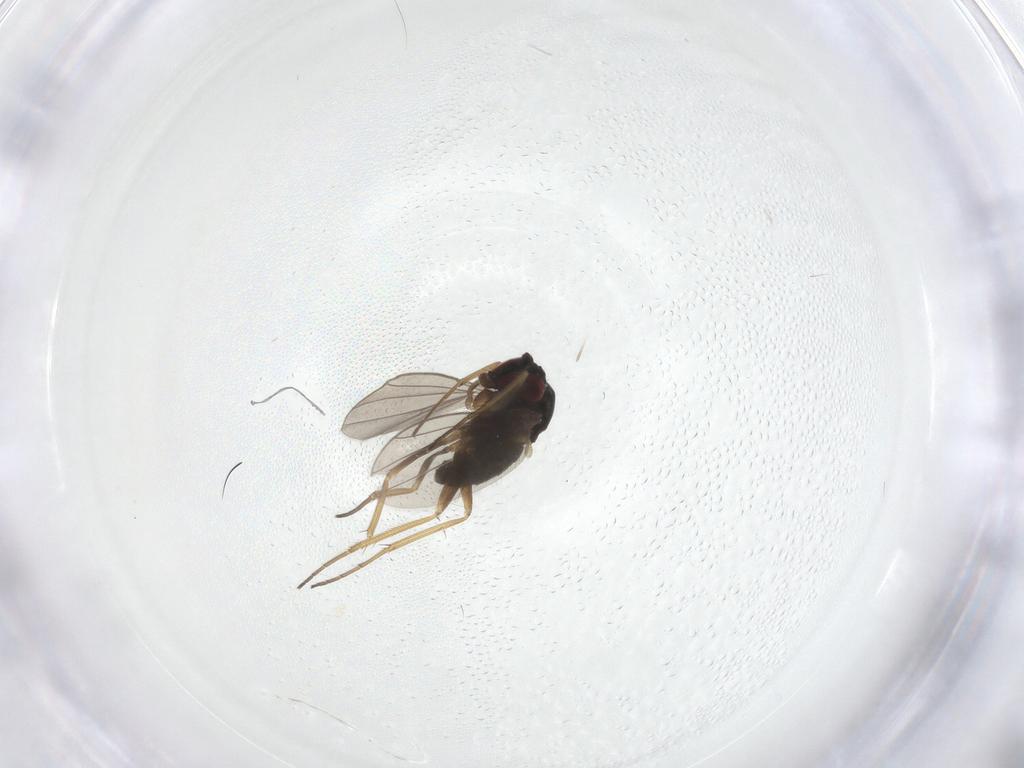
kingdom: Animalia
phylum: Arthropoda
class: Insecta
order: Diptera
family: Dolichopodidae
